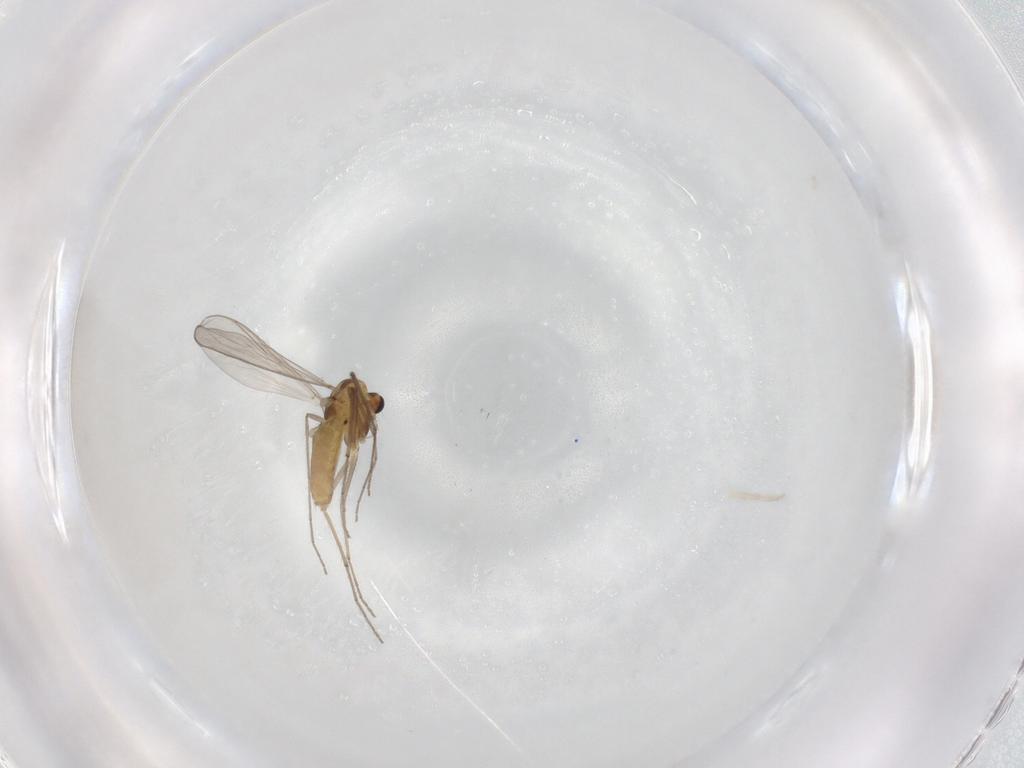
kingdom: Animalia
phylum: Arthropoda
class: Insecta
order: Diptera
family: Chironomidae
